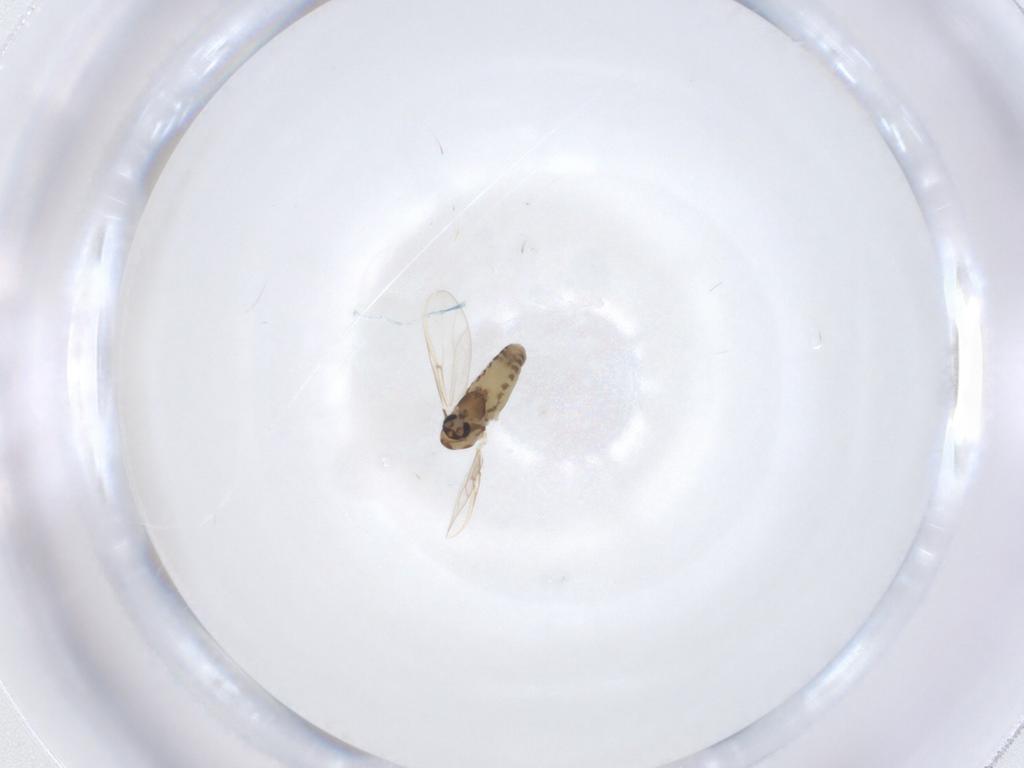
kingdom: Animalia
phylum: Arthropoda
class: Insecta
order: Diptera
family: Chironomidae
